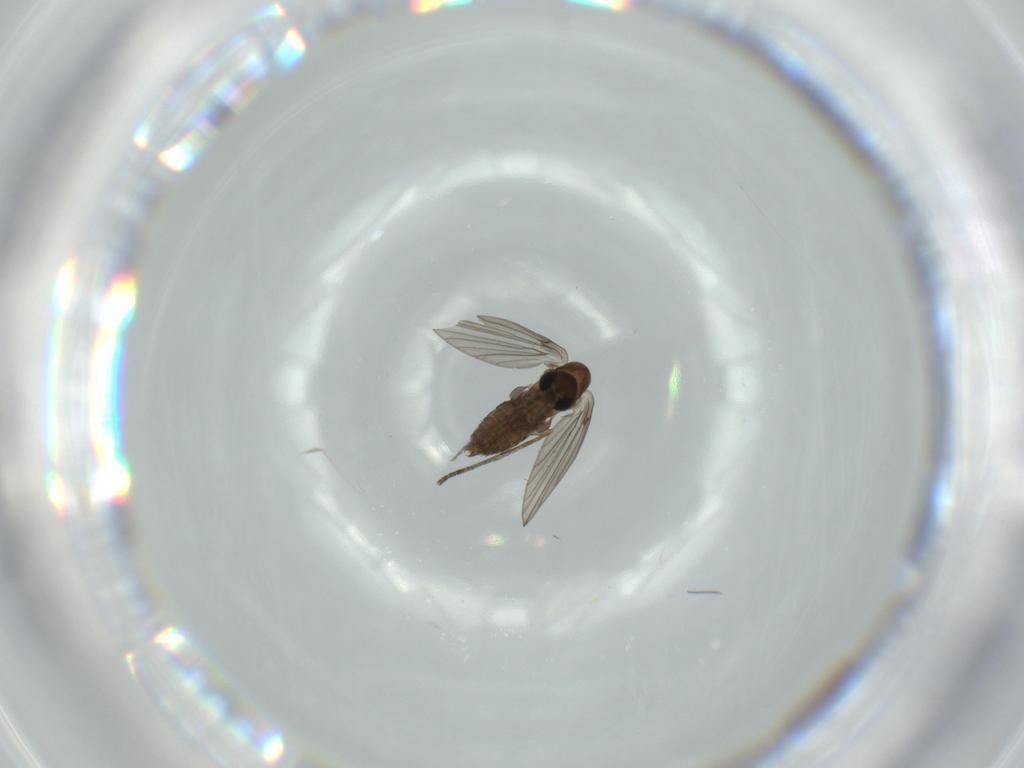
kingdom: Animalia
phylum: Arthropoda
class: Insecta
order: Diptera
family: Psychodidae
